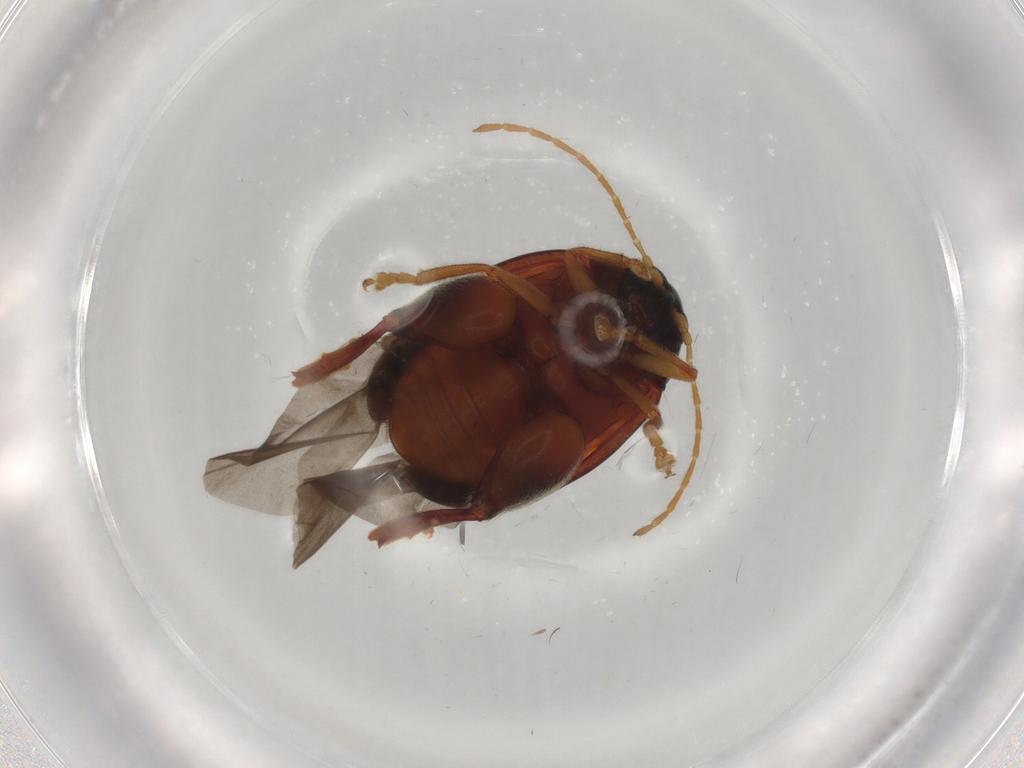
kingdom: Animalia
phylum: Arthropoda
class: Insecta
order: Coleoptera
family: Chrysomelidae
